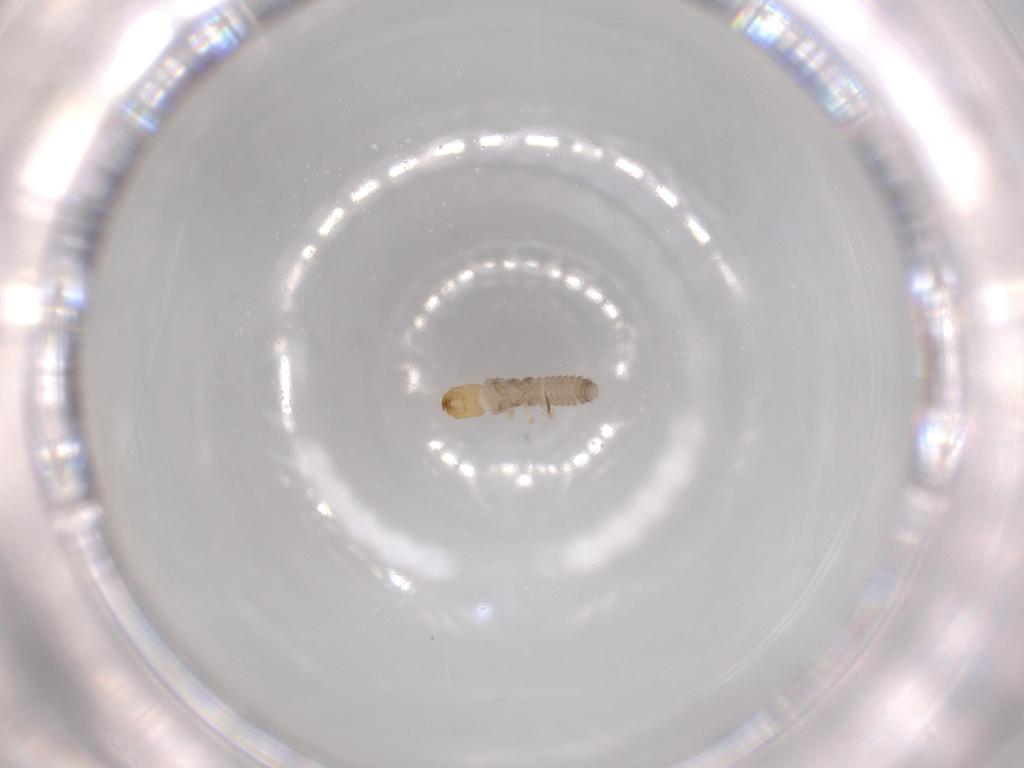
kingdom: Animalia
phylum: Arthropoda
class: Insecta
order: Coleoptera
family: Staphylinidae
